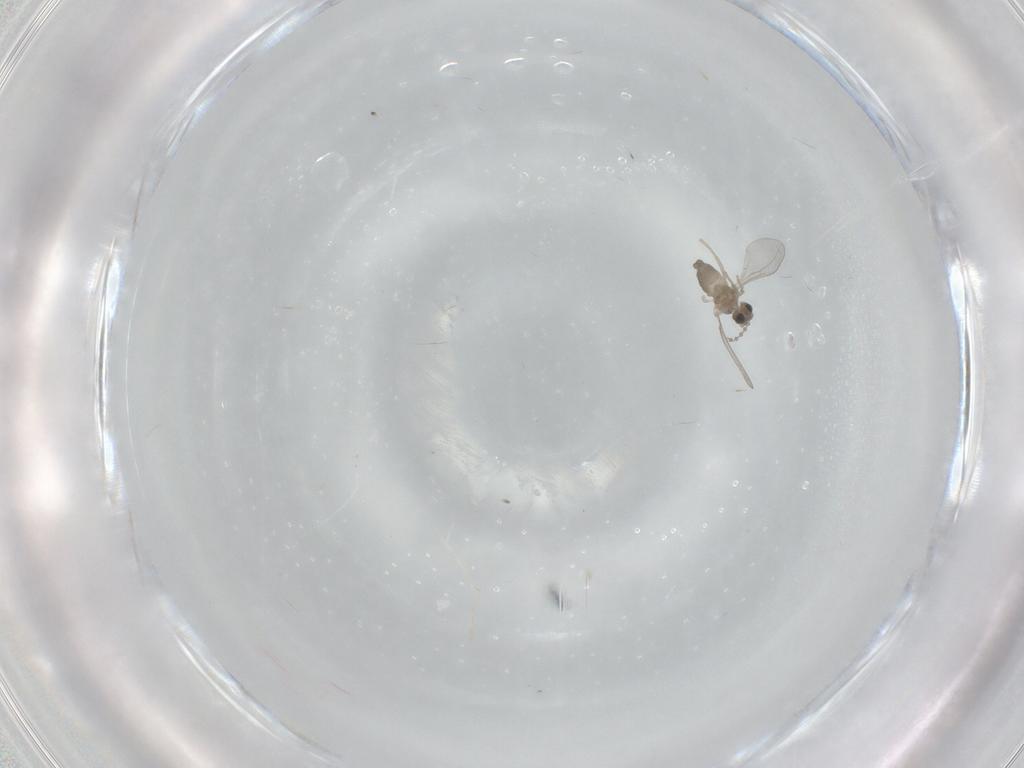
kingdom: Animalia
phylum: Arthropoda
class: Insecta
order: Diptera
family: Cecidomyiidae
